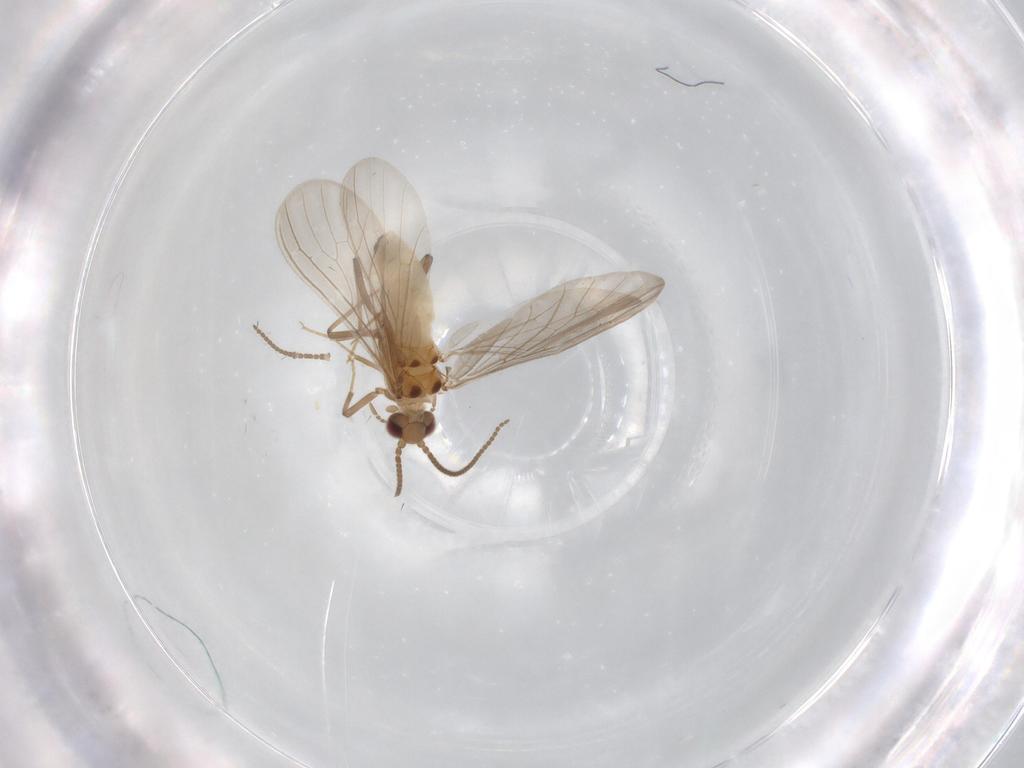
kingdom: Animalia
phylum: Arthropoda
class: Insecta
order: Neuroptera
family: Coniopterygidae
